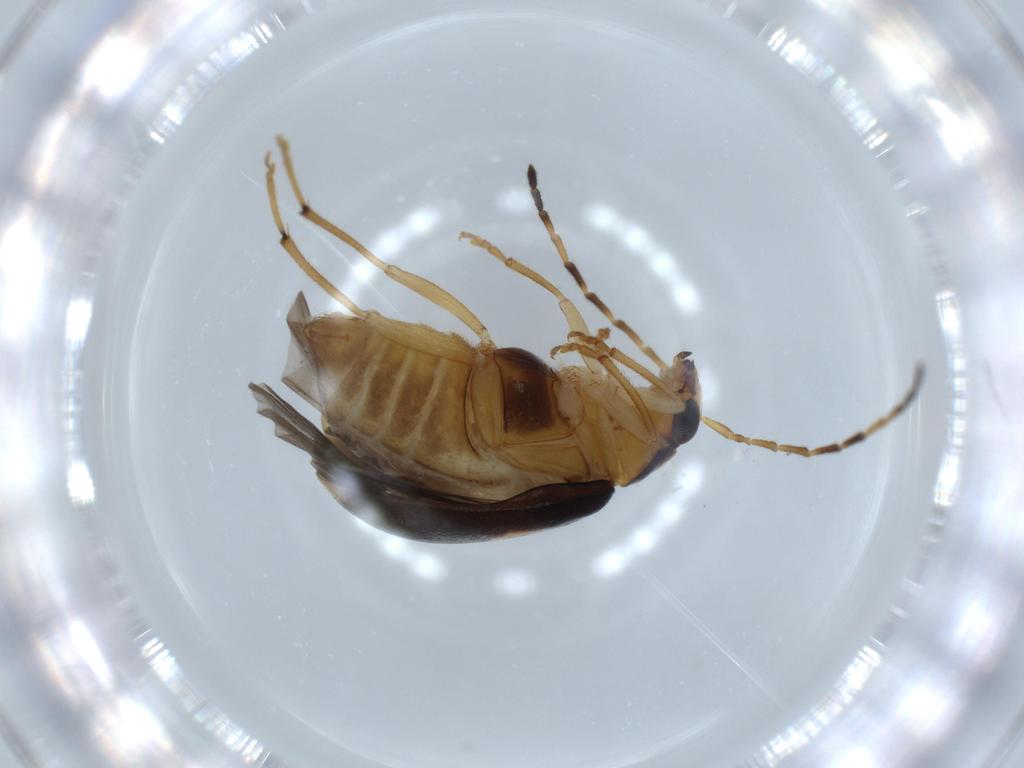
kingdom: Animalia
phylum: Arthropoda
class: Insecta
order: Coleoptera
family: Chrysomelidae
